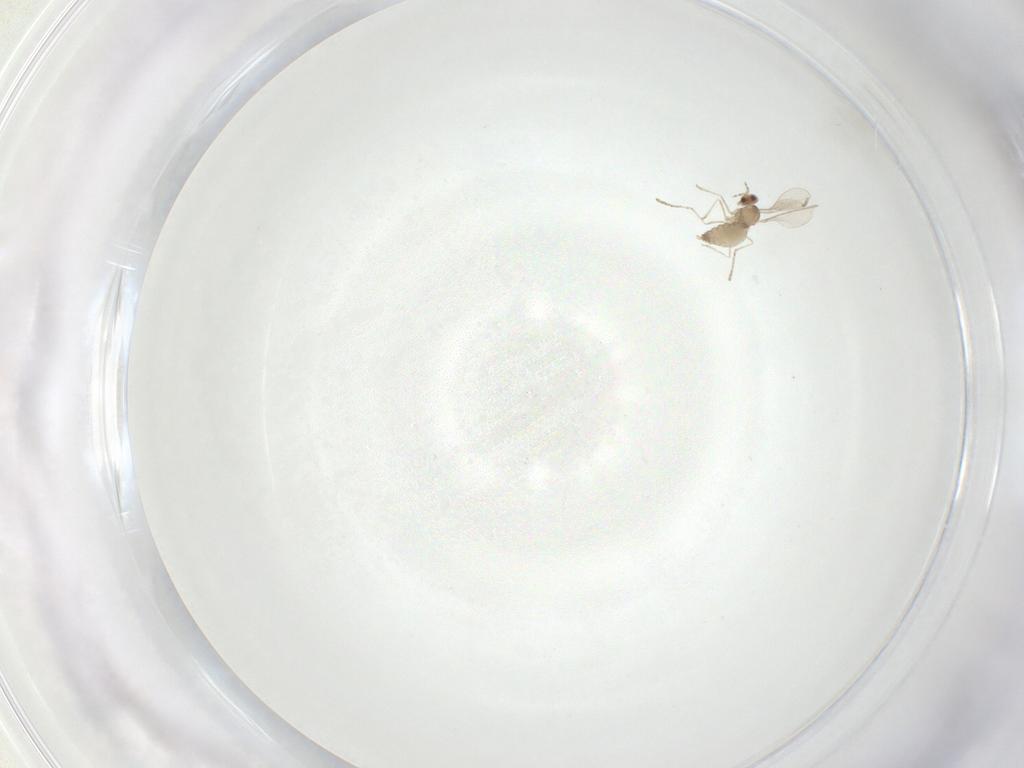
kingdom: Animalia
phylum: Arthropoda
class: Insecta
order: Diptera
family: Cecidomyiidae
